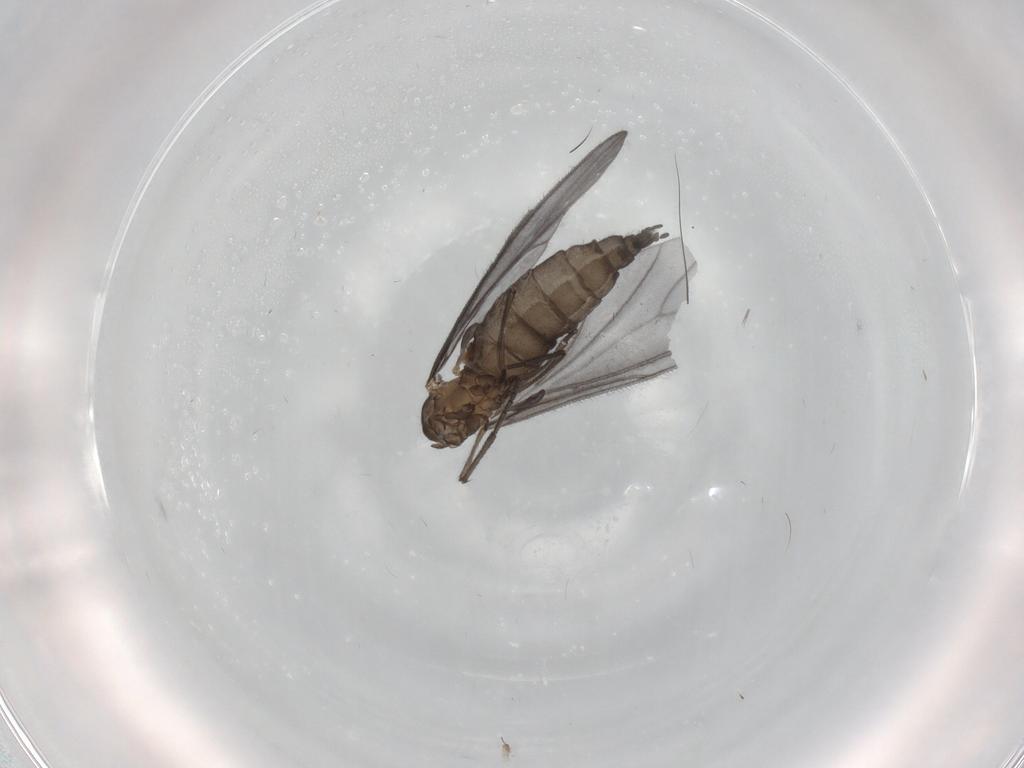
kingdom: Animalia
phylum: Arthropoda
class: Insecta
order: Diptera
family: Sciaridae
